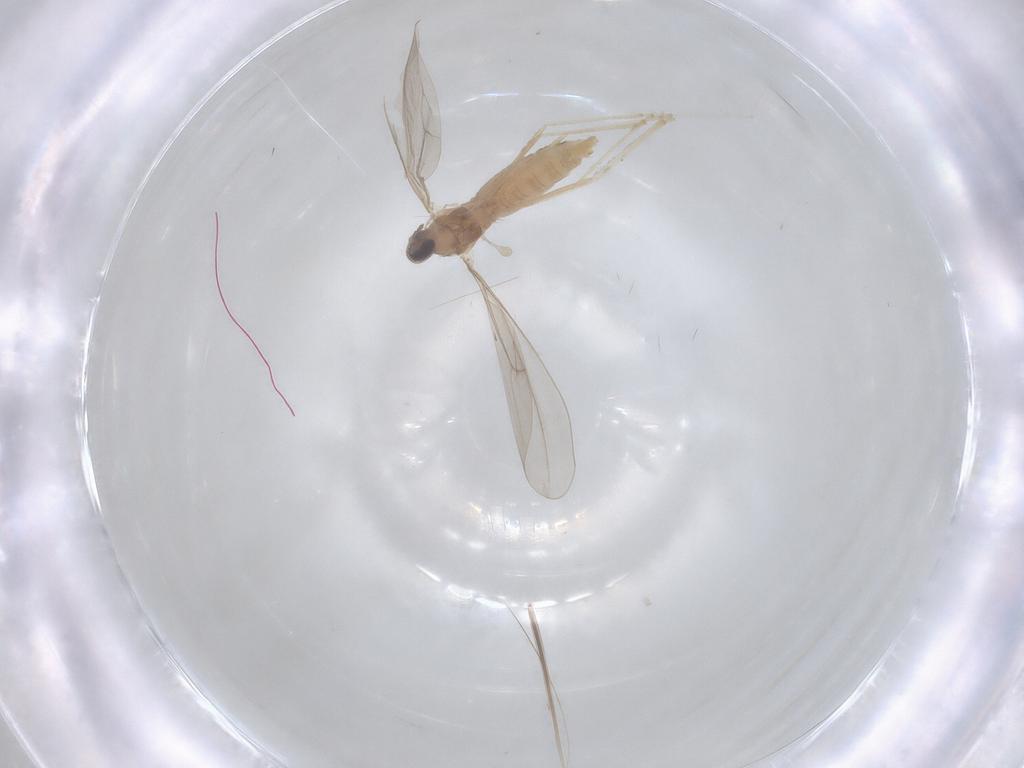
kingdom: Animalia
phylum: Arthropoda
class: Insecta
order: Diptera
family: Cecidomyiidae
